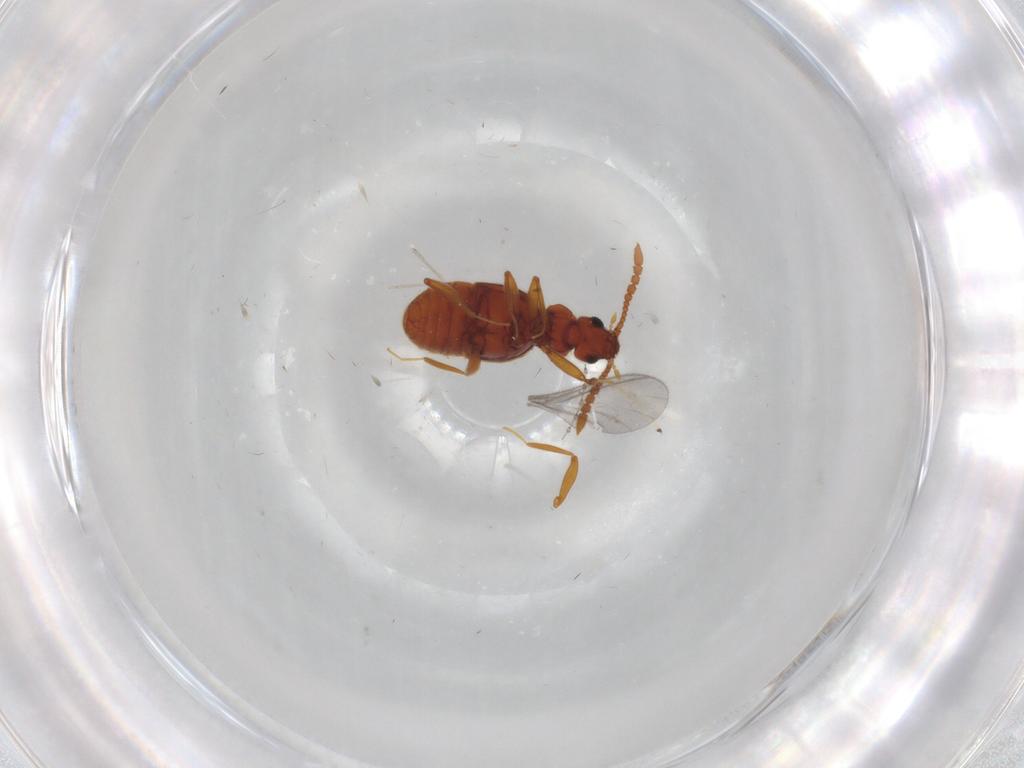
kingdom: Animalia
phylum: Arthropoda
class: Insecta
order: Coleoptera
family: Staphylinidae
